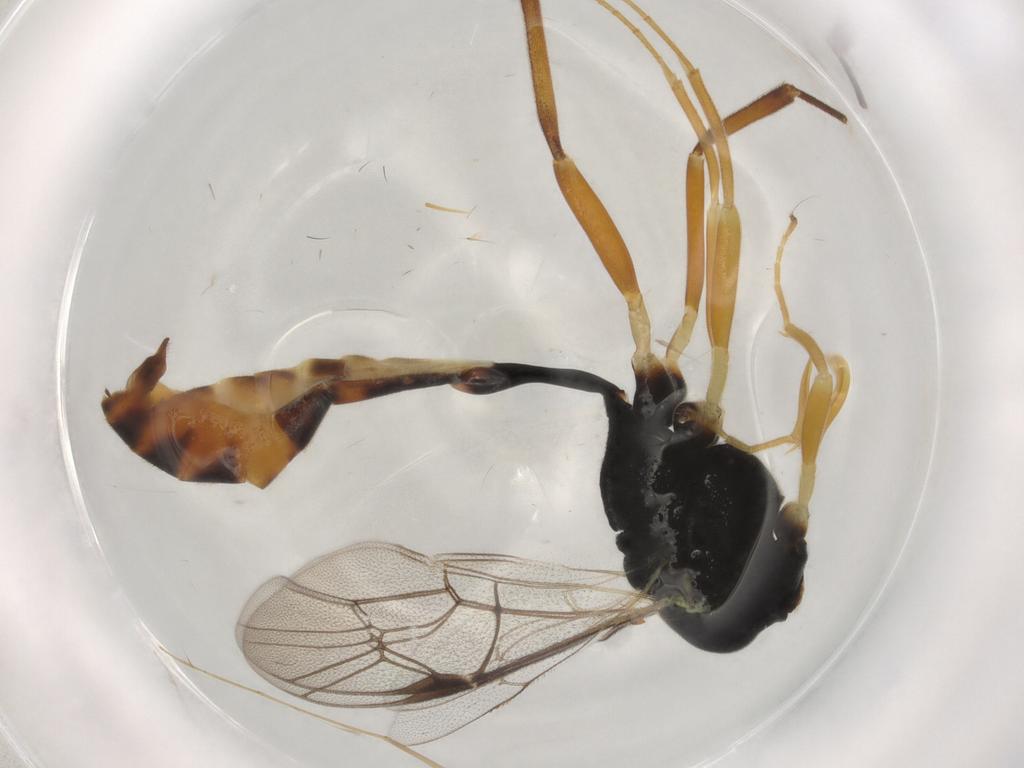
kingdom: Animalia
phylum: Arthropoda
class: Insecta
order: Hymenoptera
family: Ichneumonidae
